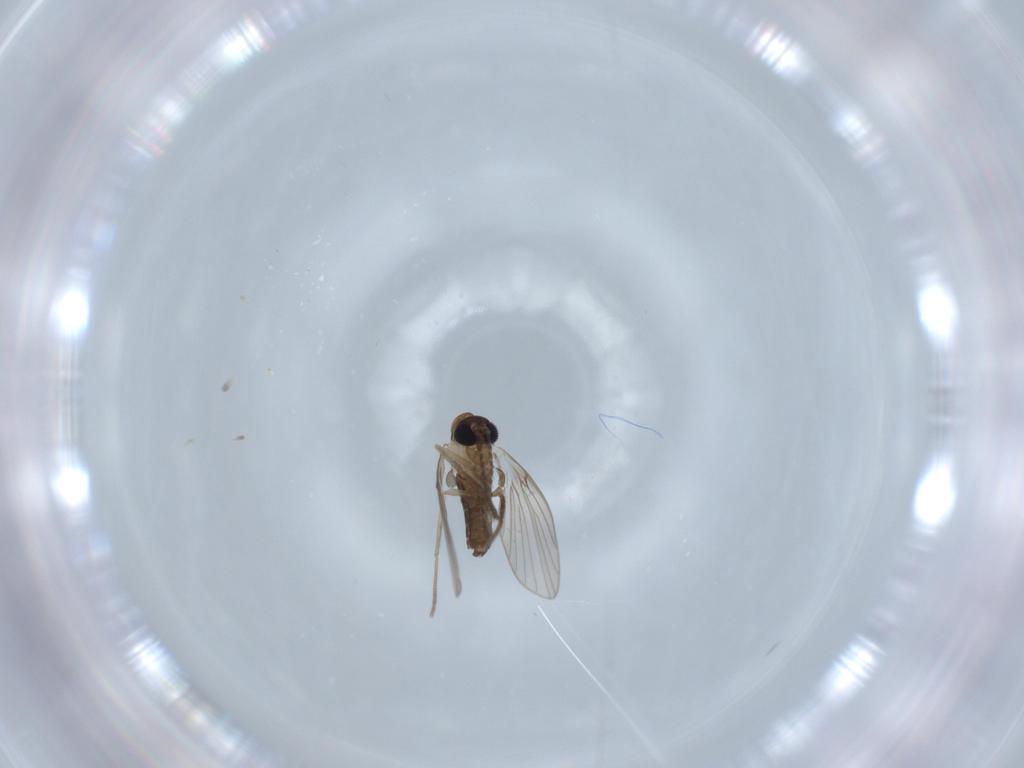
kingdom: Animalia
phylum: Arthropoda
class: Insecta
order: Diptera
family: Psychodidae
